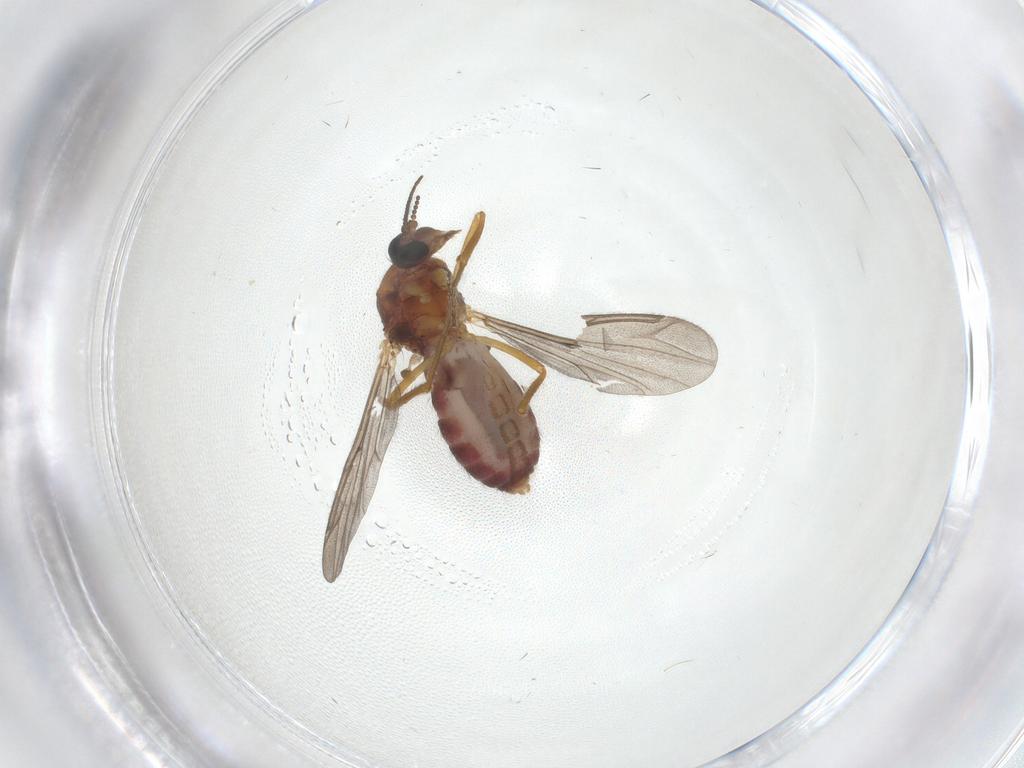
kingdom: Animalia
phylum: Arthropoda
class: Insecta
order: Diptera
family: Ceratopogonidae
